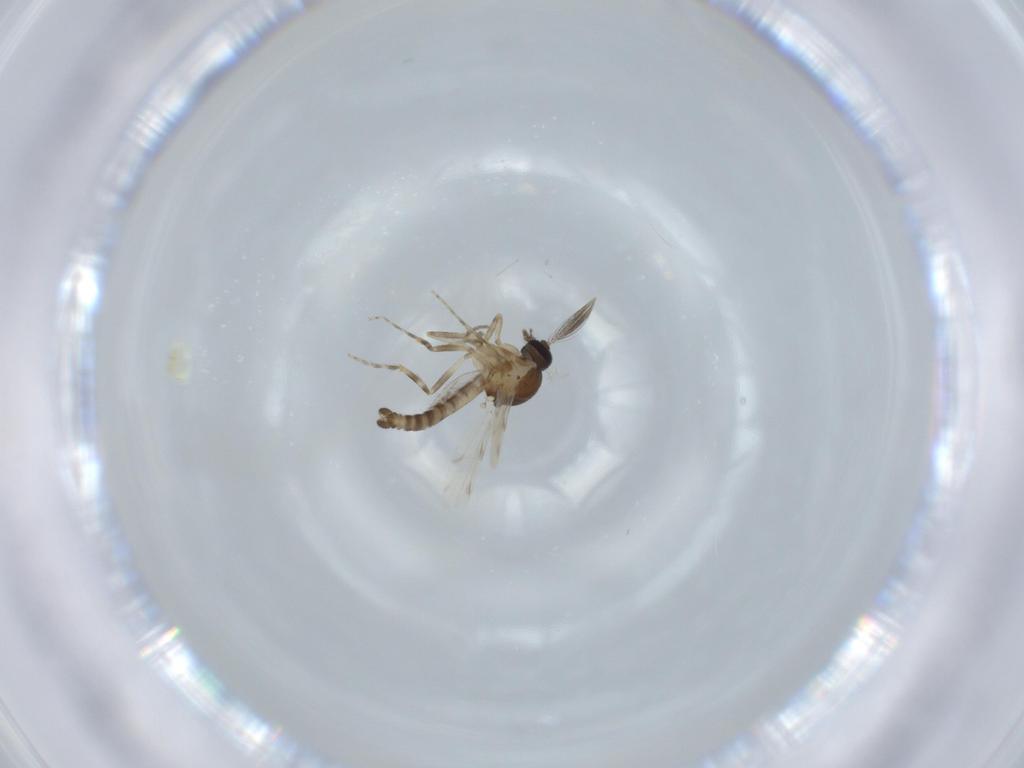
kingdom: Animalia
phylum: Arthropoda
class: Insecta
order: Diptera
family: Ceratopogonidae
